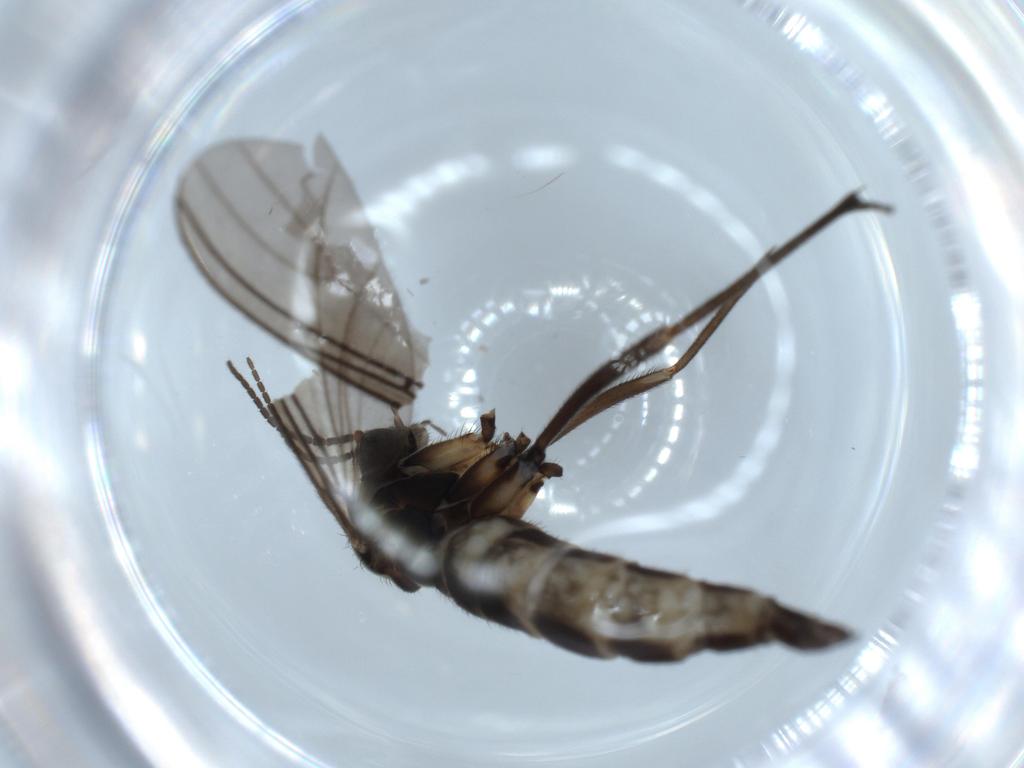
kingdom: Animalia
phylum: Arthropoda
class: Insecta
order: Diptera
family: Sciaridae
